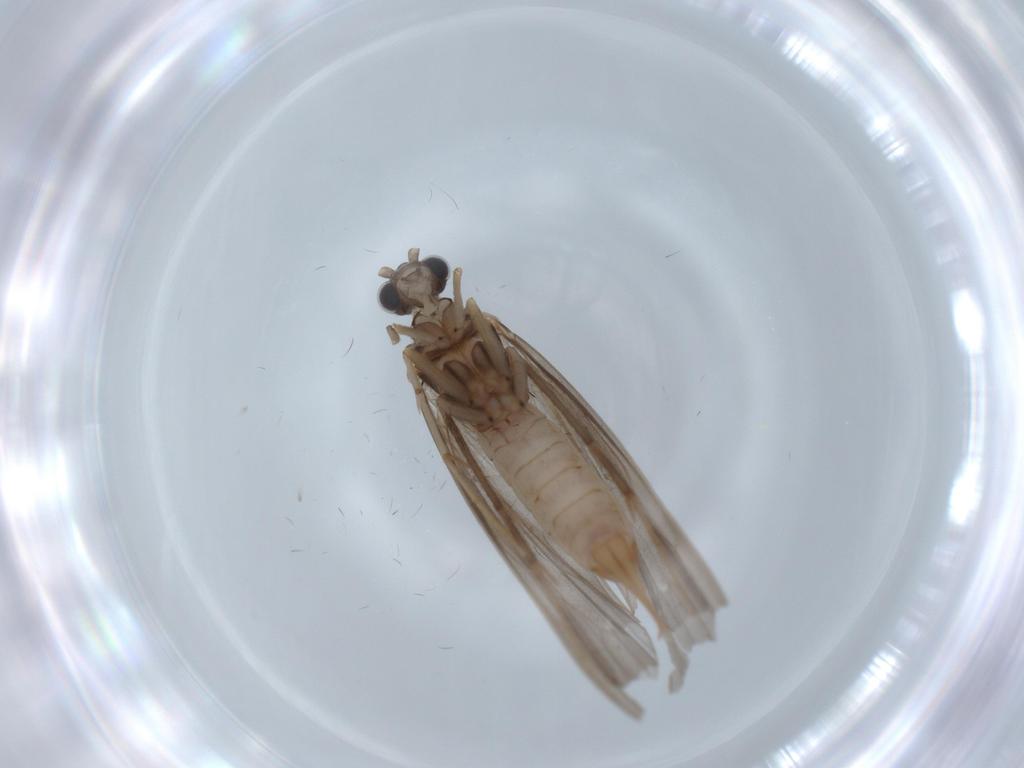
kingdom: Animalia
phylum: Arthropoda
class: Insecta
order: Trichoptera
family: Psychomyiidae
